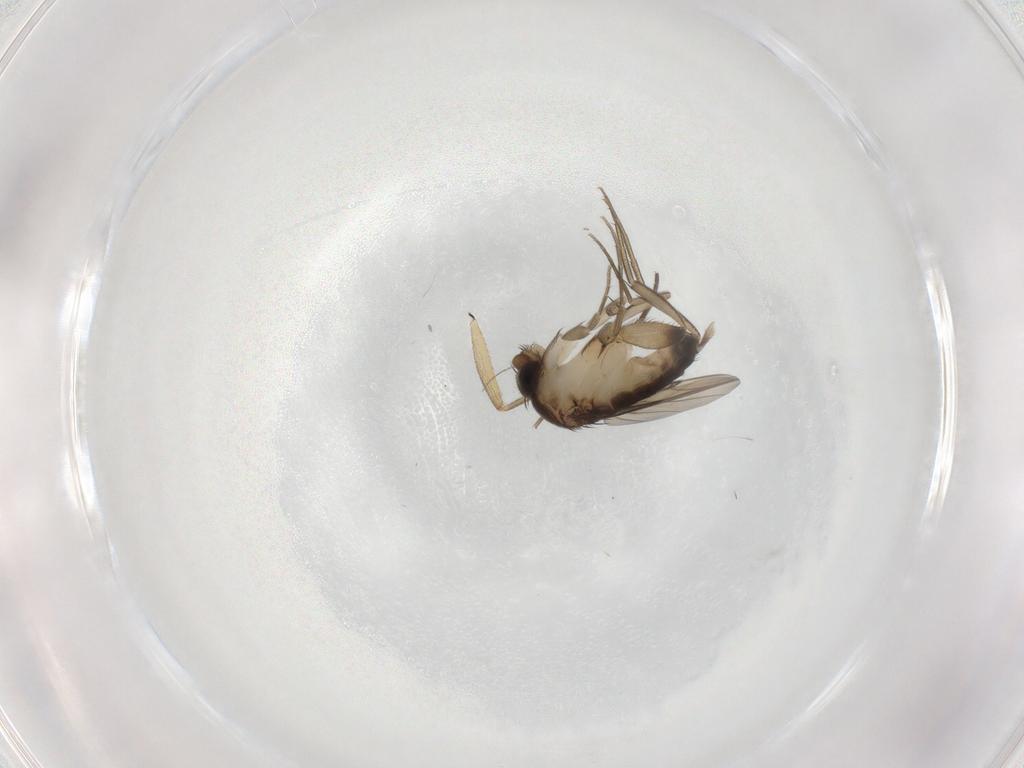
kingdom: Animalia
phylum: Arthropoda
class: Insecta
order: Diptera
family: Phoridae
